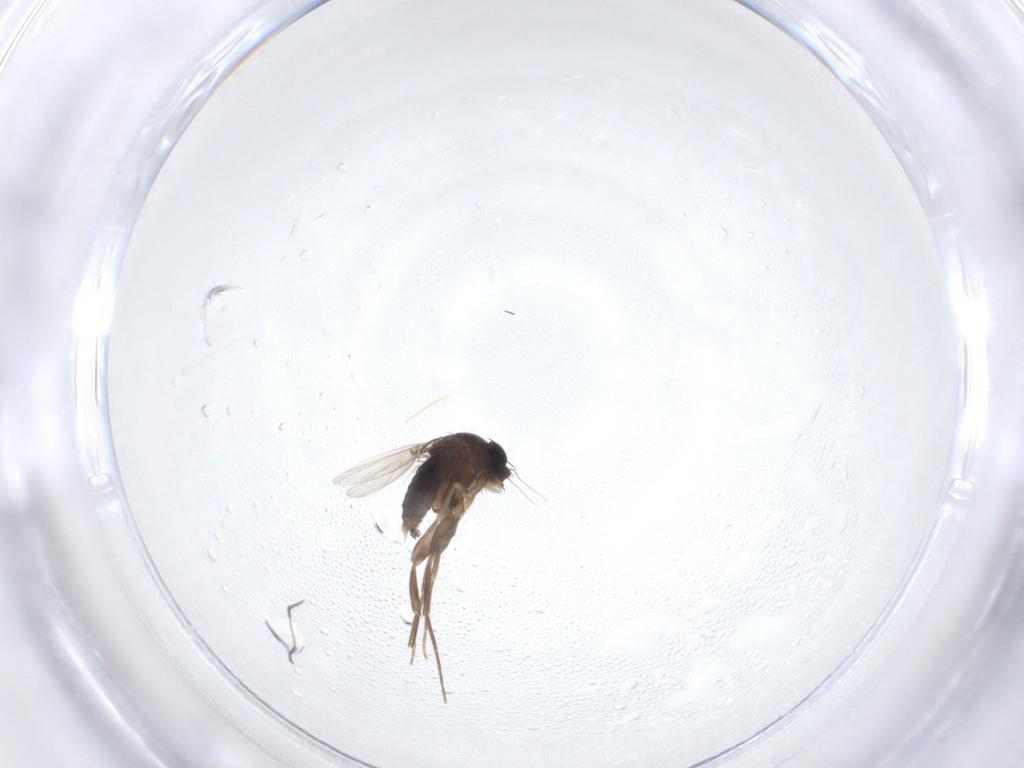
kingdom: Animalia
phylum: Arthropoda
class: Insecta
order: Diptera
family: Phoridae
